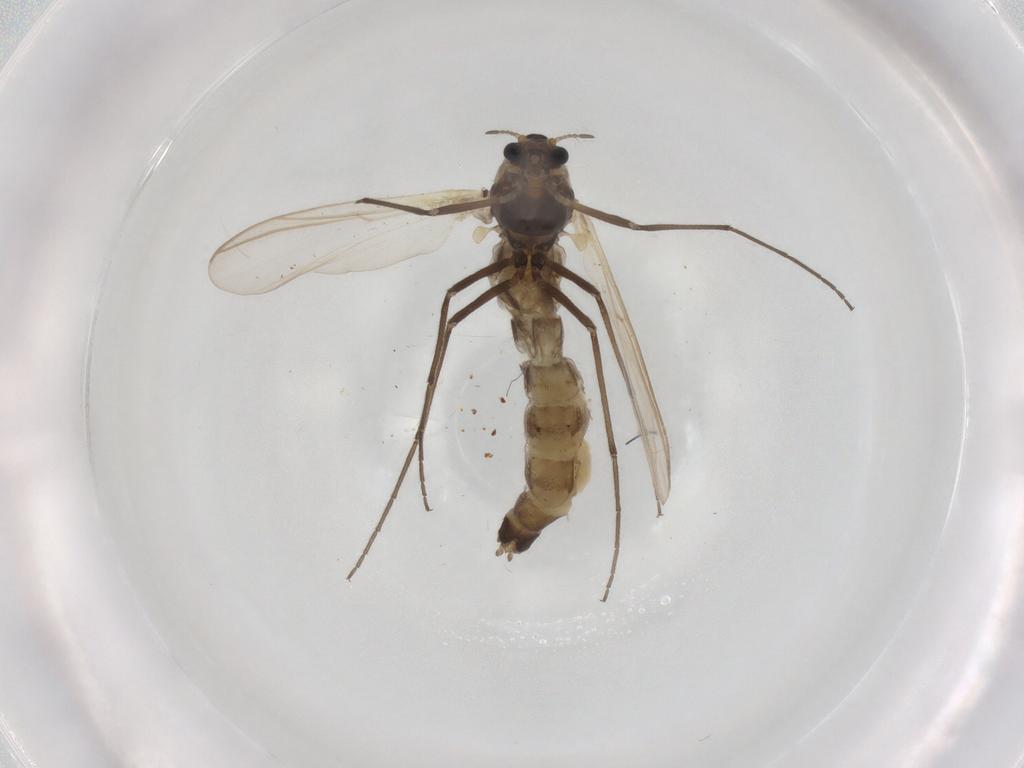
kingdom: Animalia
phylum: Arthropoda
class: Insecta
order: Diptera
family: Chironomidae
